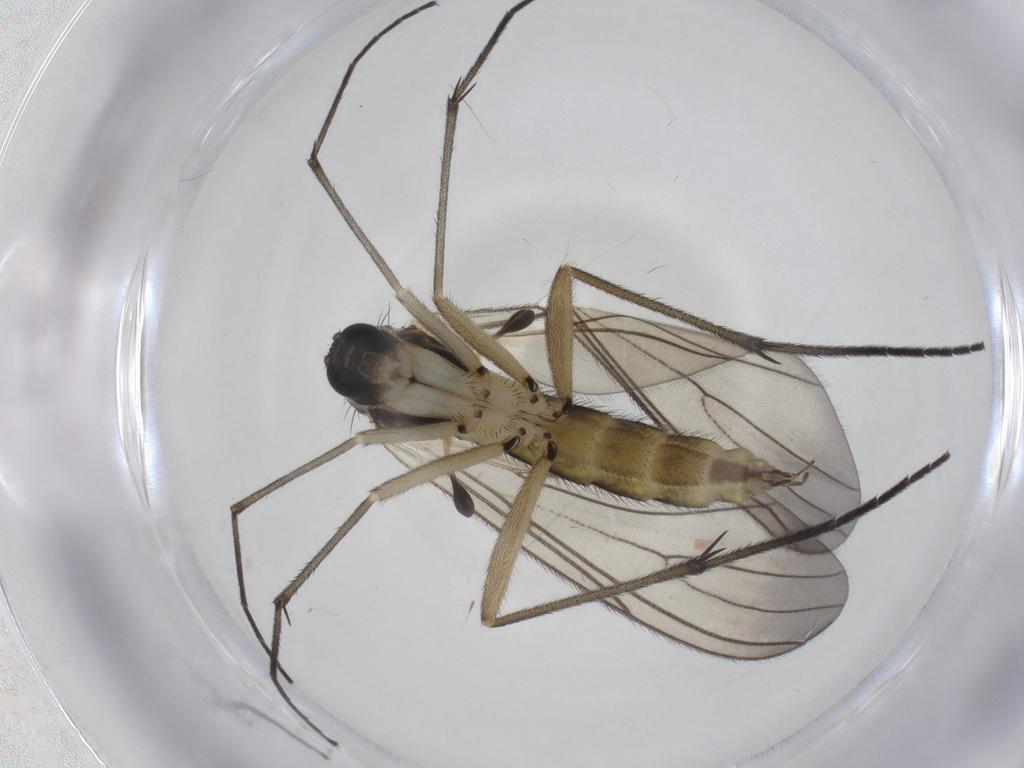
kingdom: Animalia
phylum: Arthropoda
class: Insecta
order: Diptera
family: Sciaridae
